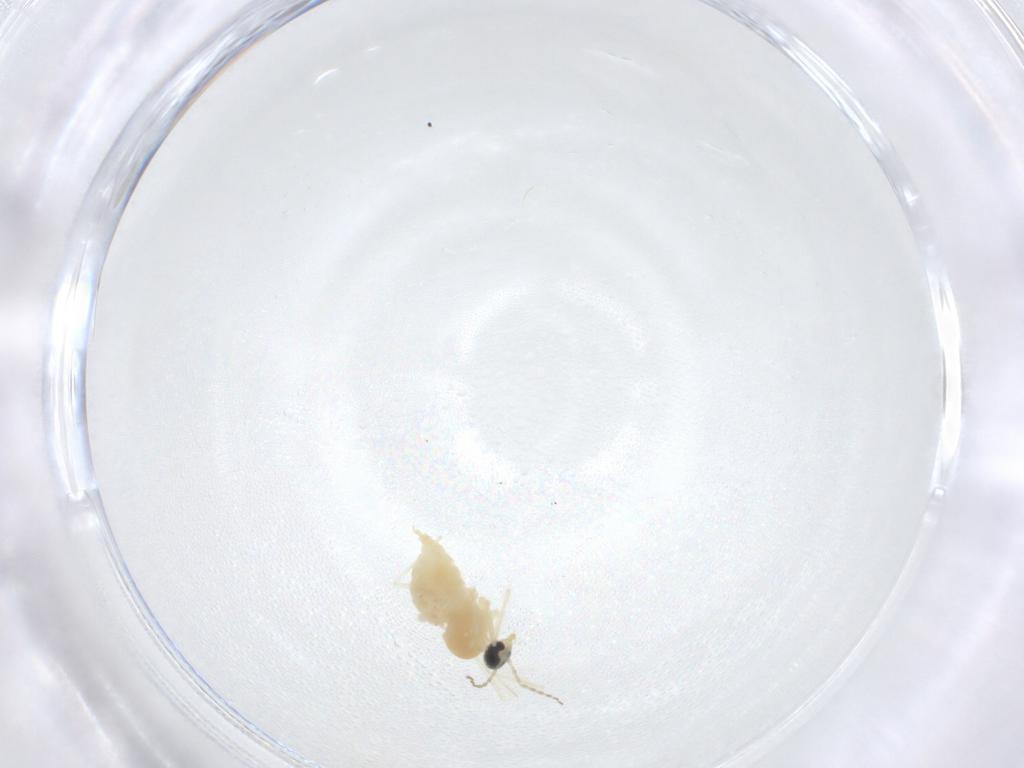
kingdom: Animalia
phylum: Arthropoda
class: Insecta
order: Diptera
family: Cecidomyiidae
